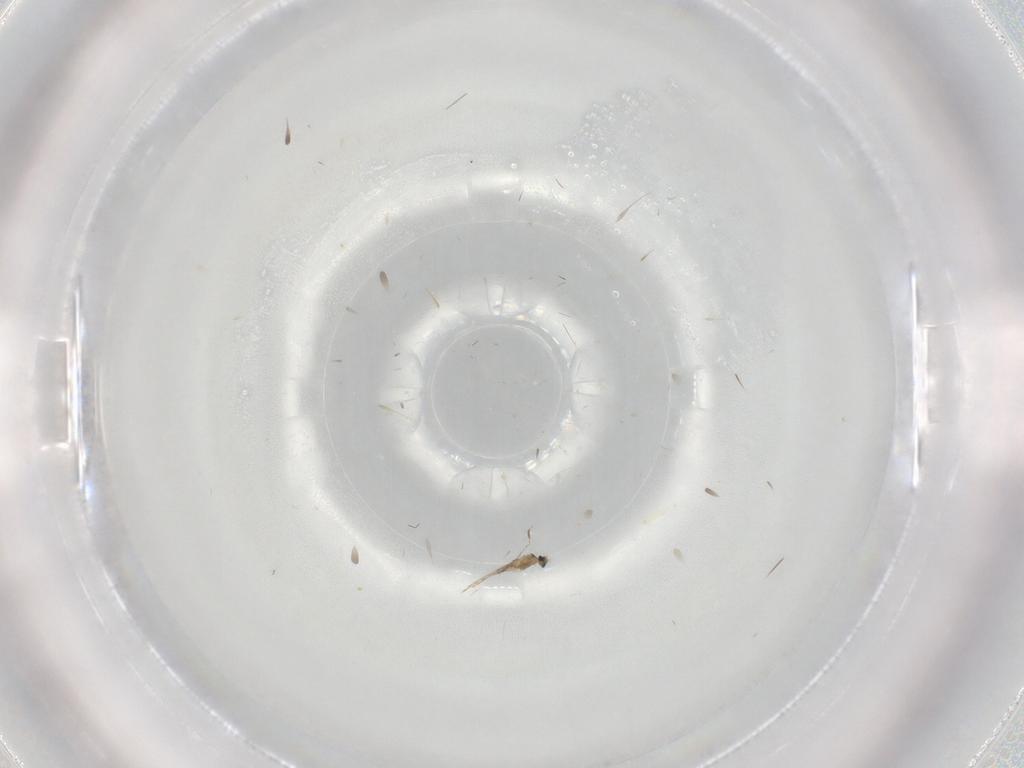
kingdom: Animalia
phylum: Arthropoda
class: Insecta
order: Diptera
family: Cecidomyiidae
